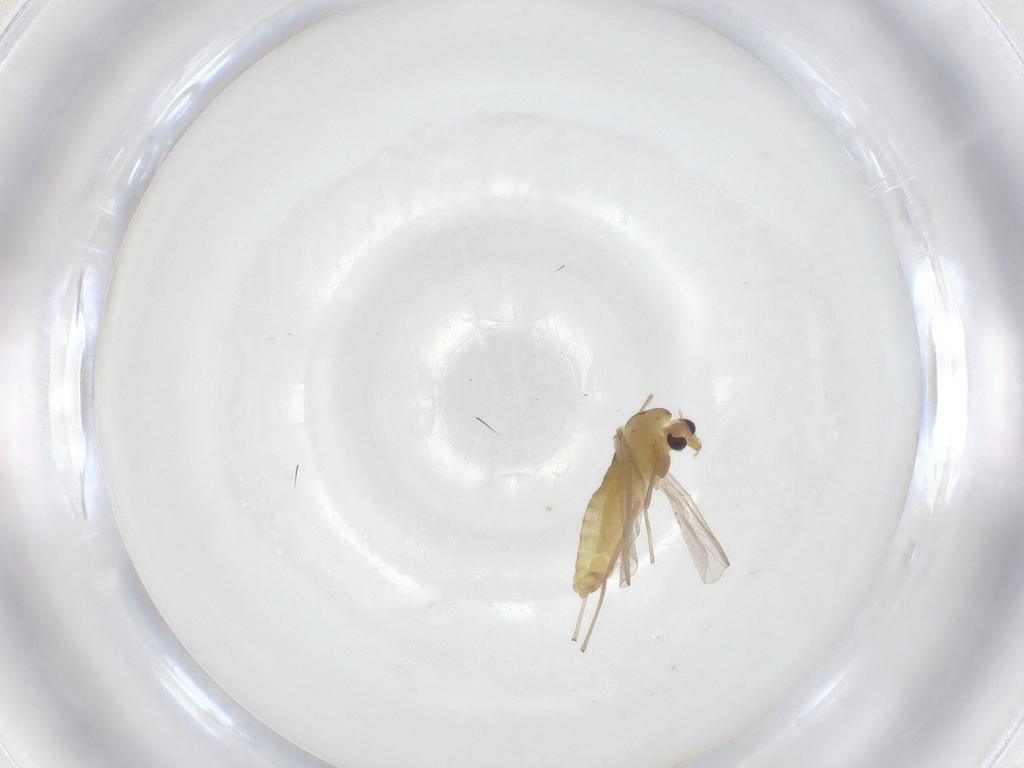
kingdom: Animalia
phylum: Arthropoda
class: Insecta
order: Diptera
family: Chironomidae
